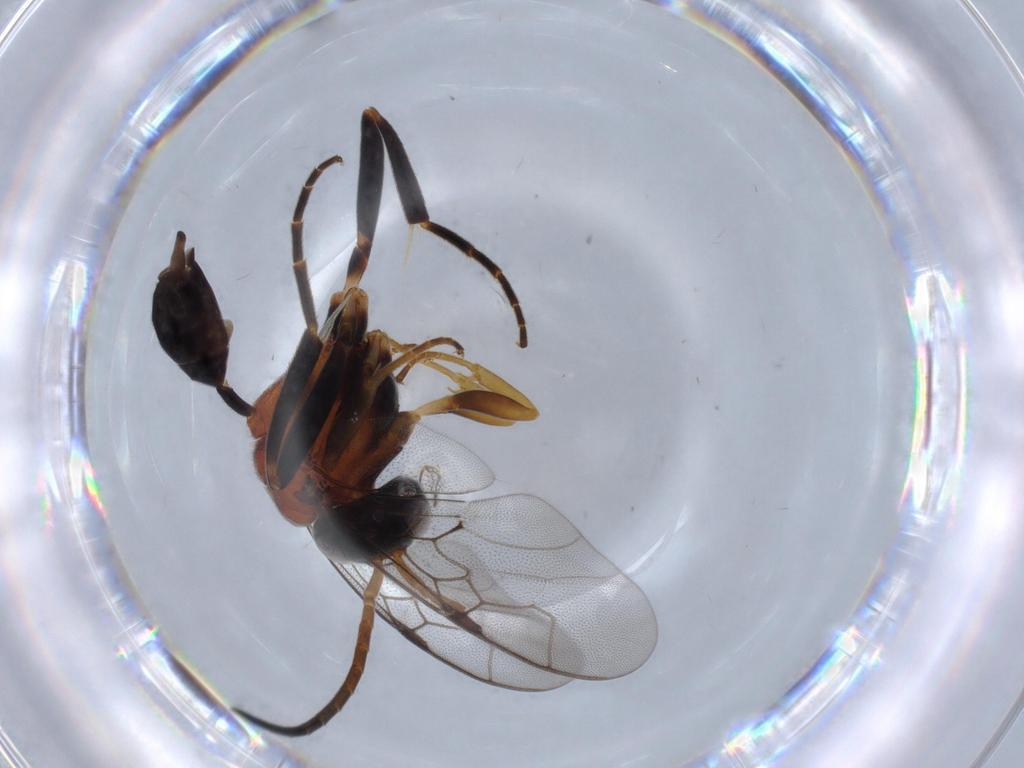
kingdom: Animalia
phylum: Arthropoda
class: Insecta
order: Hymenoptera
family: Evaniidae
